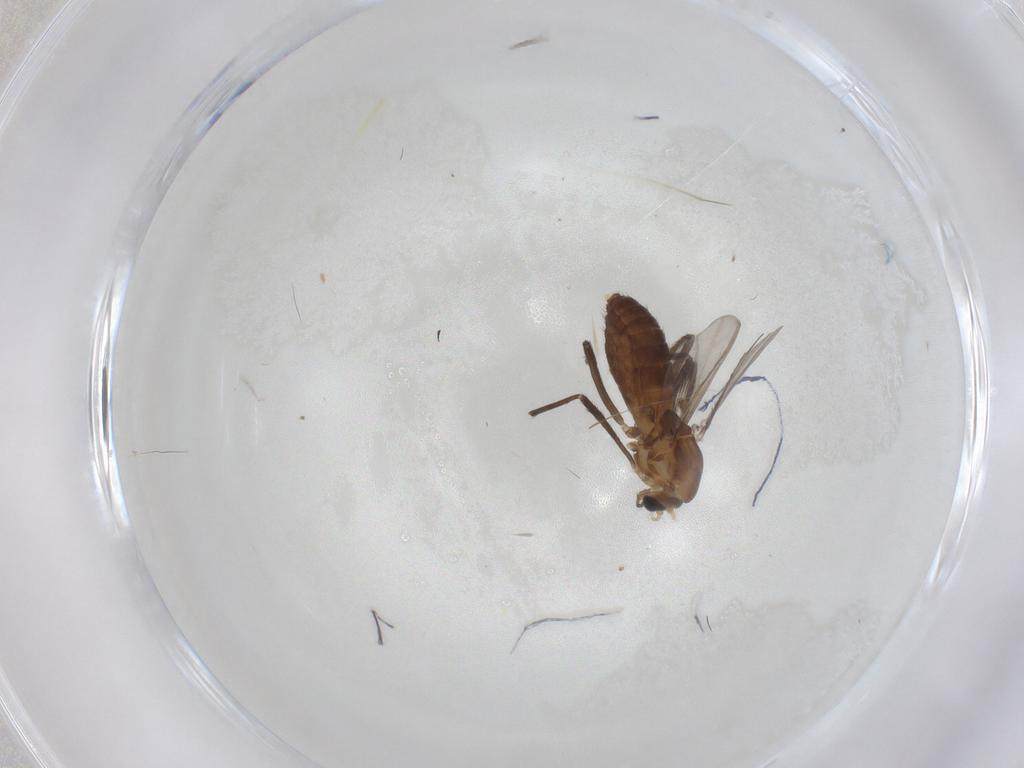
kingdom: Animalia
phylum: Arthropoda
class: Insecta
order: Diptera
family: Chironomidae
